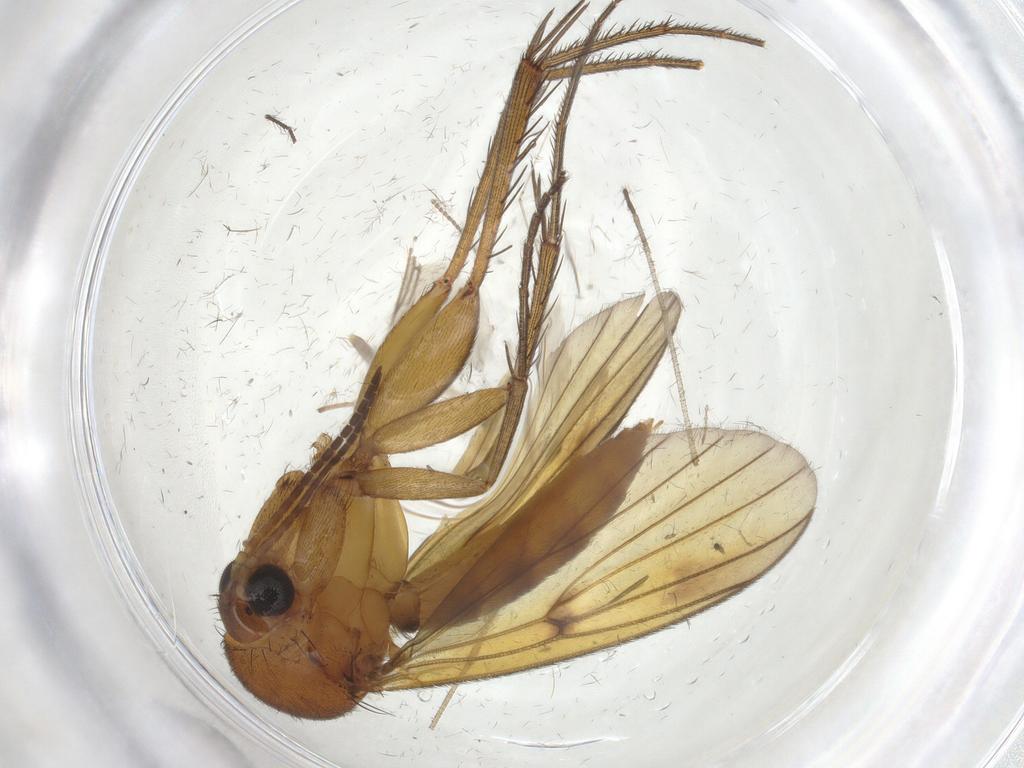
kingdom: Animalia
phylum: Arthropoda
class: Insecta
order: Diptera
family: Mycetophilidae
